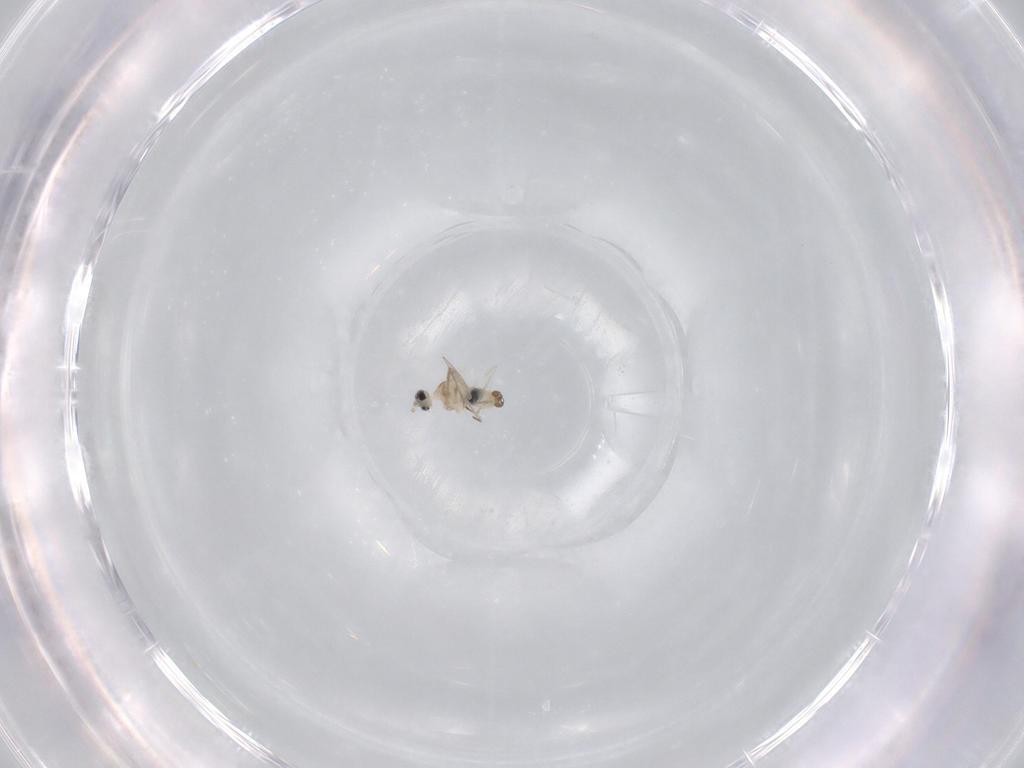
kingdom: Animalia
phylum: Arthropoda
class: Insecta
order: Diptera
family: Cecidomyiidae
